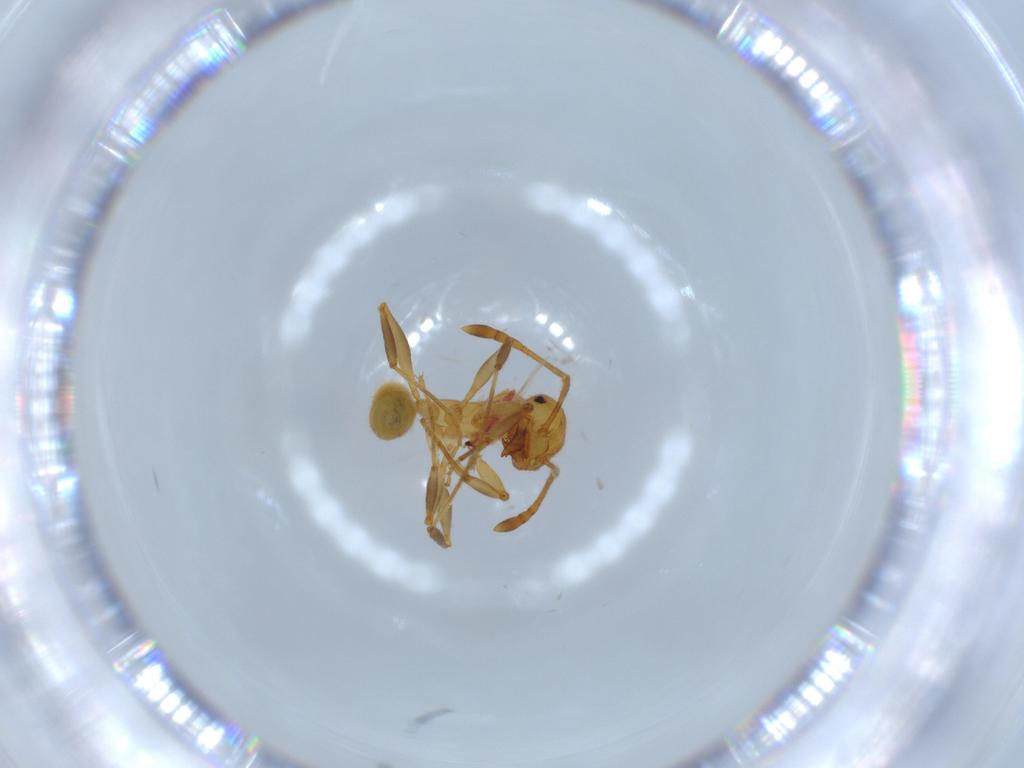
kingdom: Animalia
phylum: Arthropoda
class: Insecta
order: Hymenoptera
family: Formicidae
